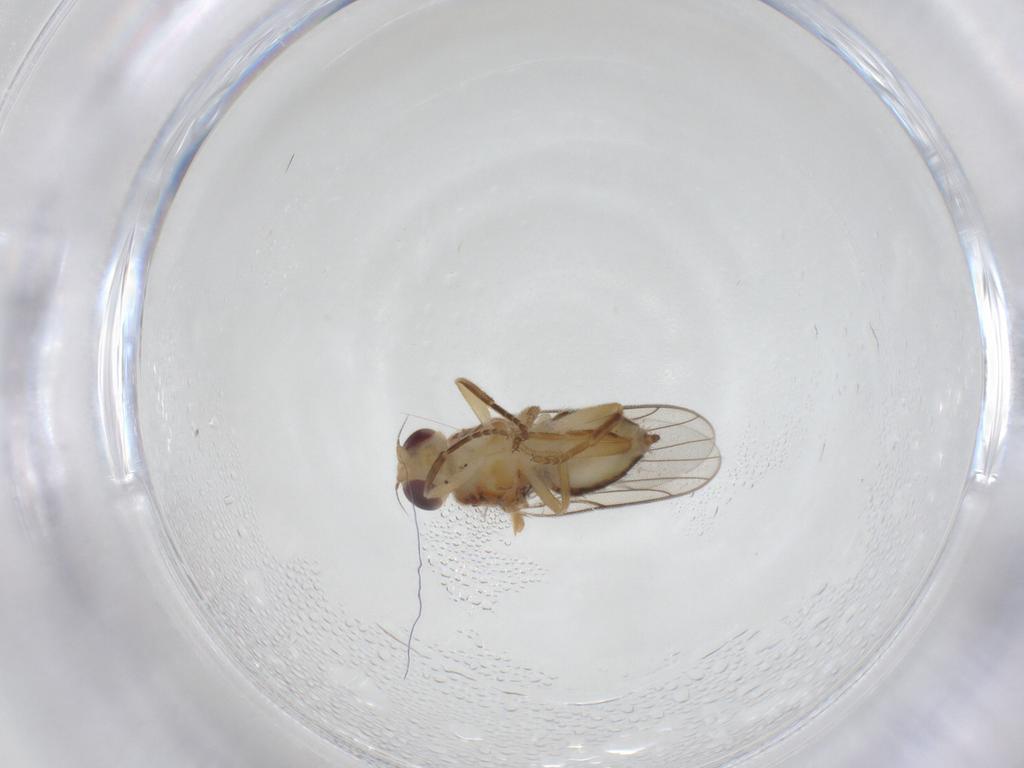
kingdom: Animalia
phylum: Arthropoda
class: Insecta
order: Diptera
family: Chloropidae
